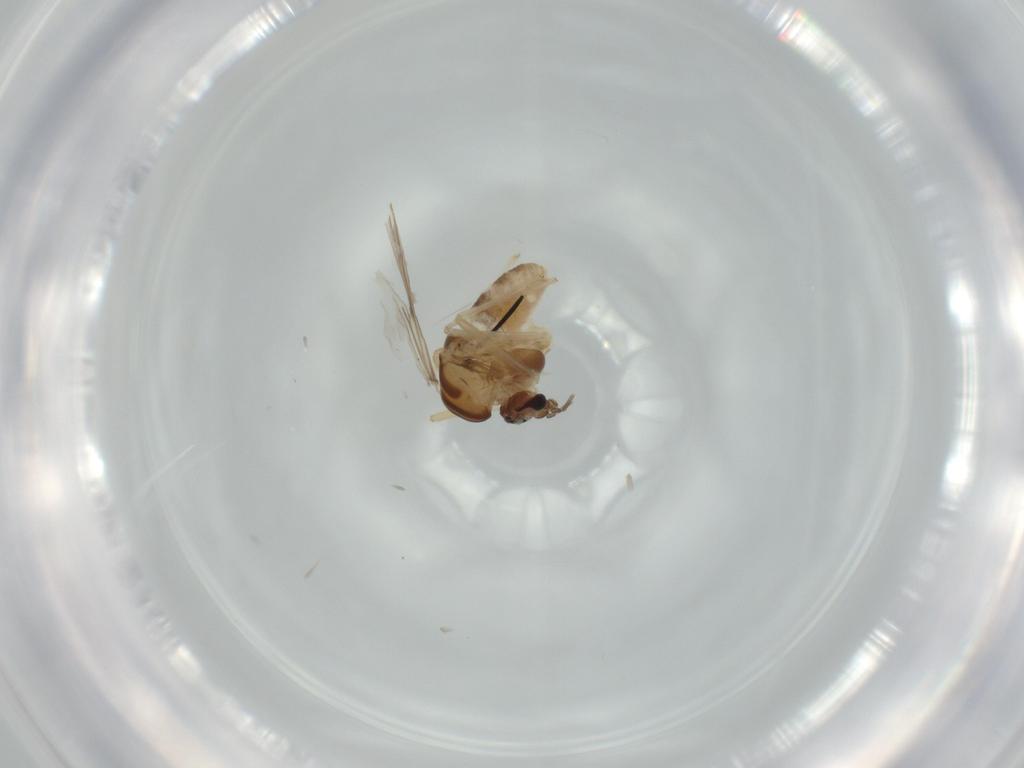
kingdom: Animalia
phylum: Arthropoda
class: Insecta
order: Diptera
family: Chironomidae
